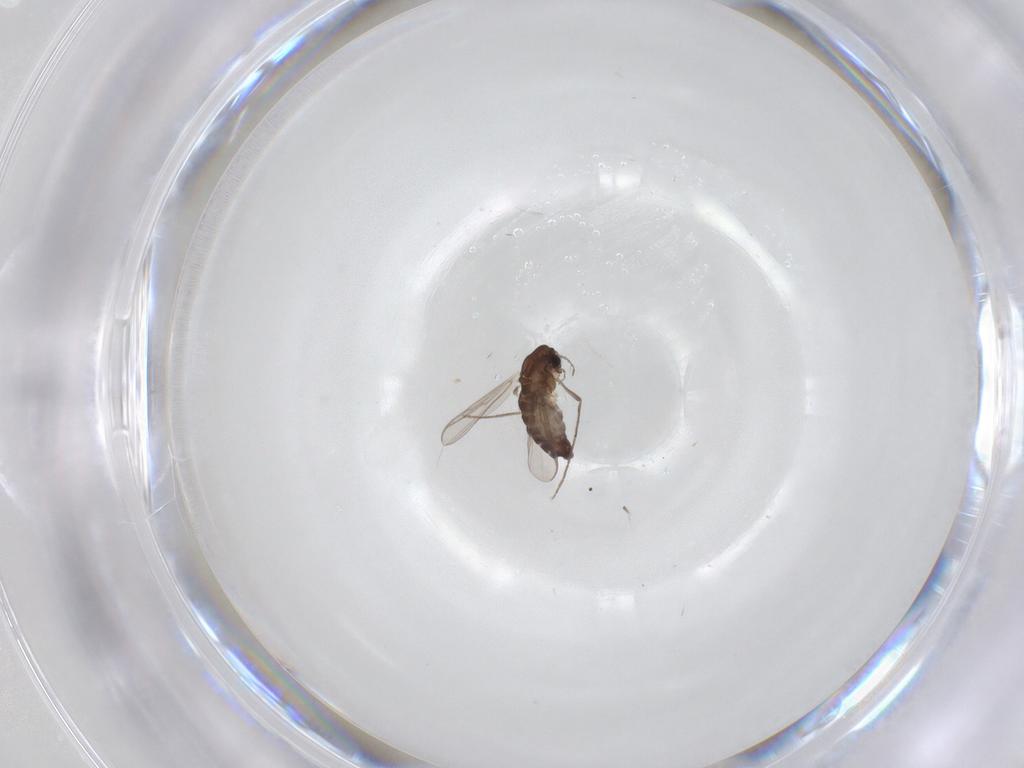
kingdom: Animalia
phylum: Arthropoda
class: Insecta
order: Diptera
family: Chironomidae
